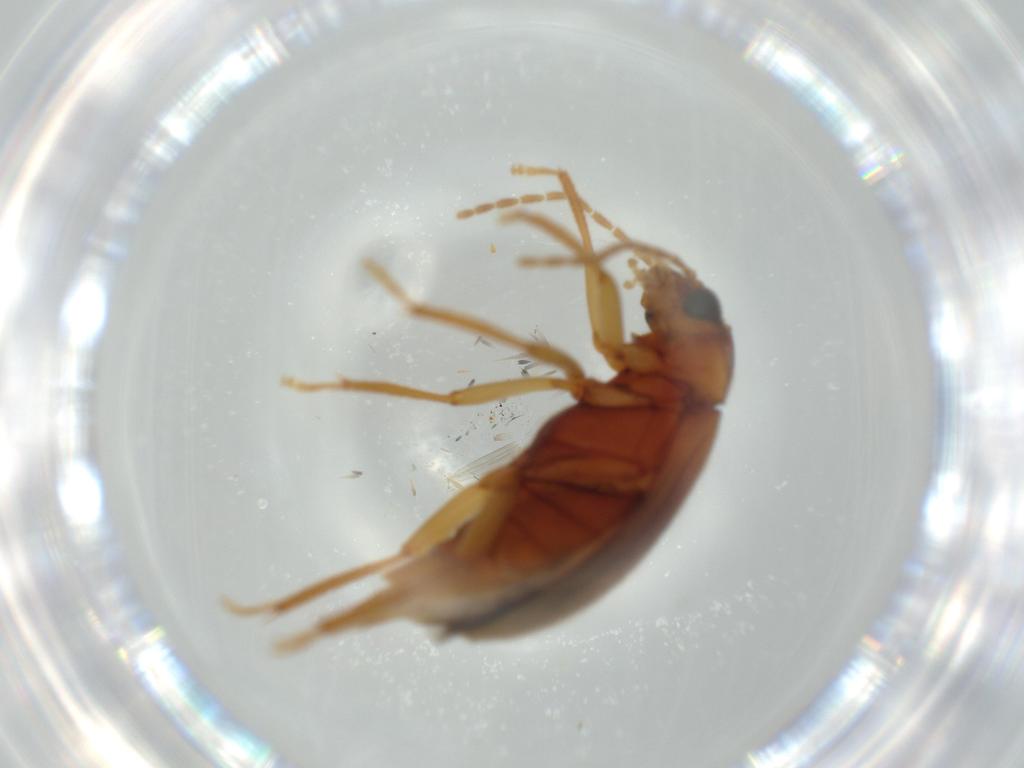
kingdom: Animalia
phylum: Arthropoda
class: Insecta
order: Coleoptera
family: Ptilodactylidae
